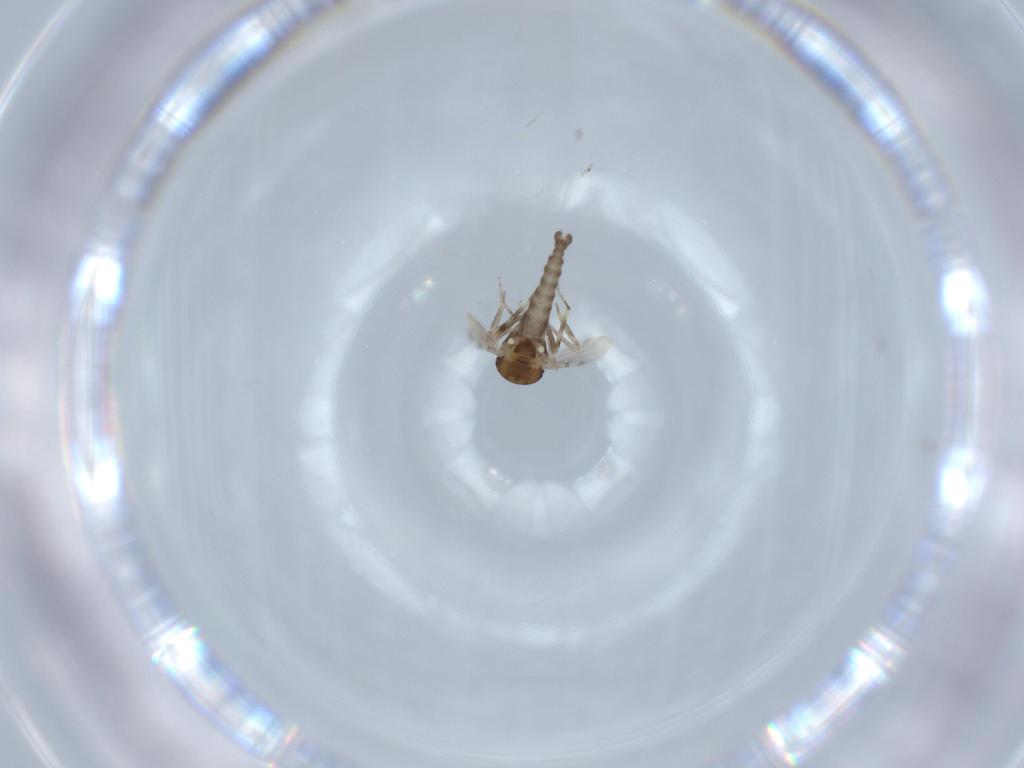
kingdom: Animalia
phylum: Arthropoda
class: Insecta
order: Diptera
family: Ceratopogonidae
